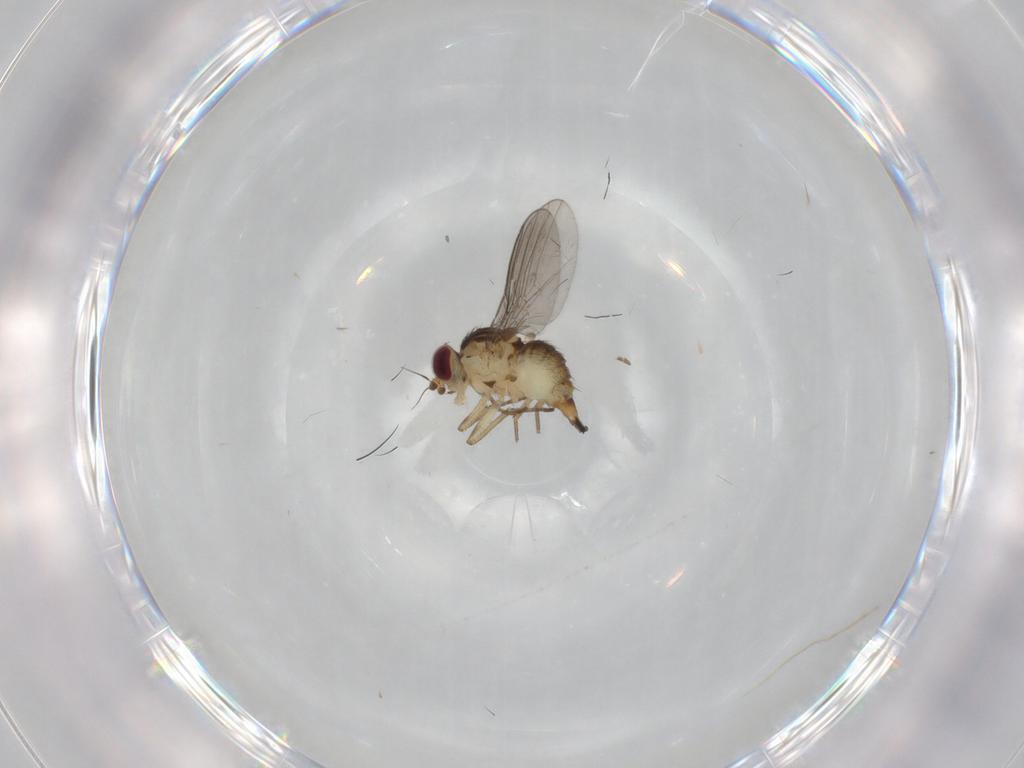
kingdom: Animalia
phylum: Arthropoda
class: Insecta
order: Diptera
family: Agromyzidae
